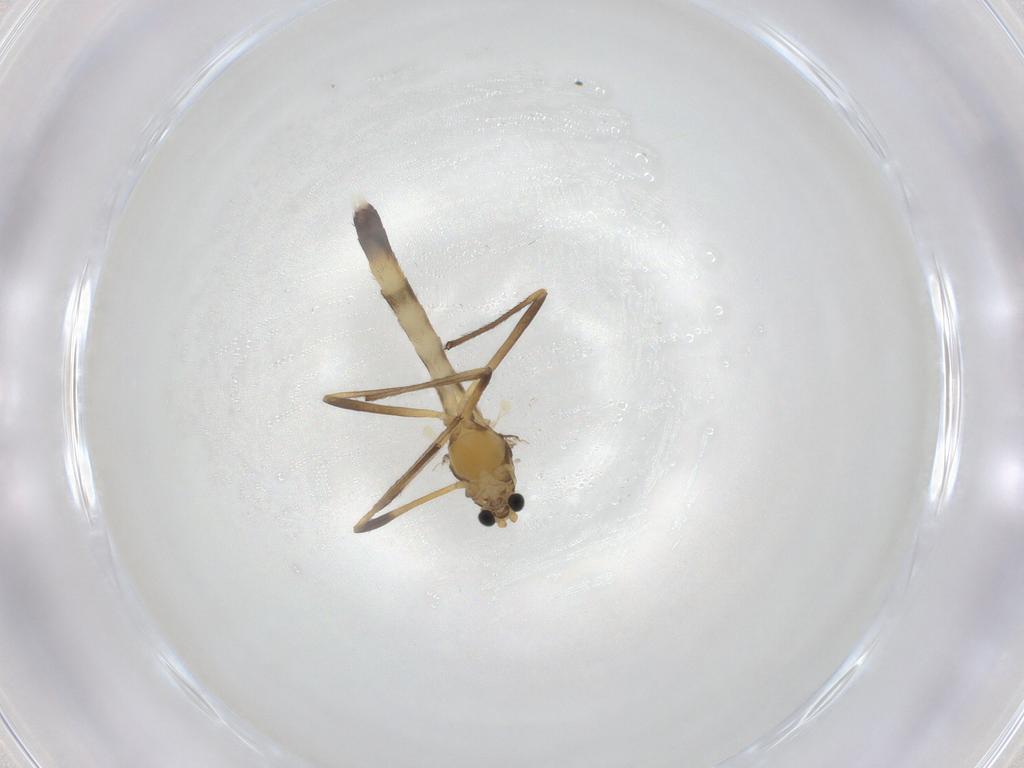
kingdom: Animalia
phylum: Arthropoda
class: Insecta
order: Diptera
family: Chironomidae
